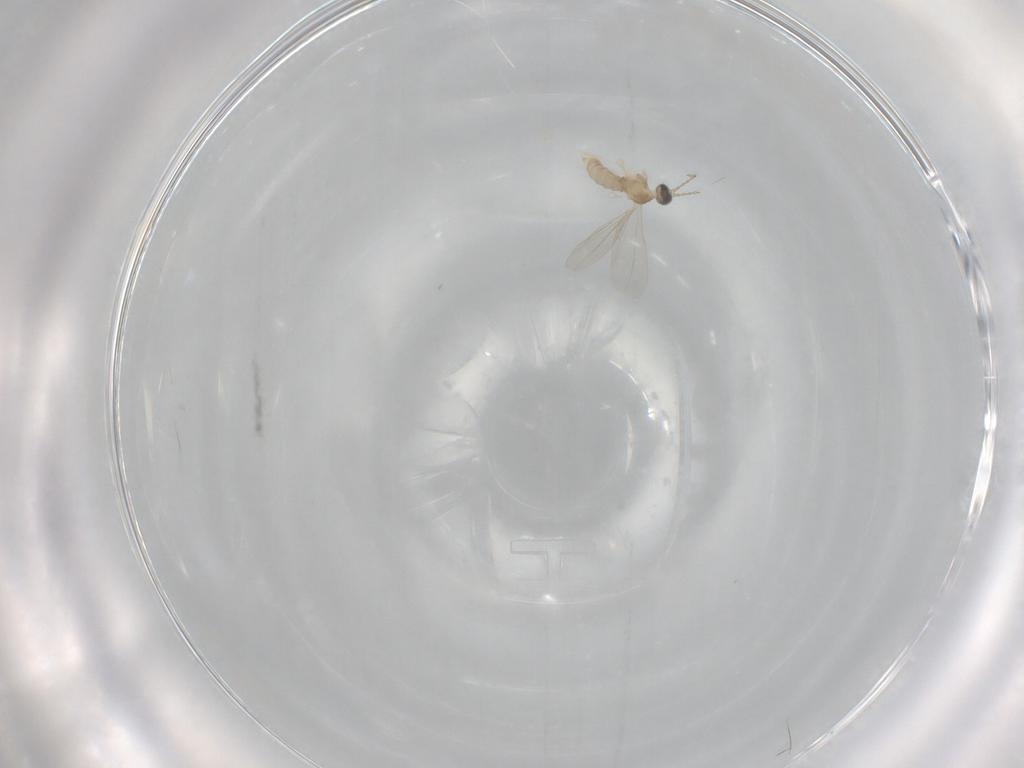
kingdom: Animalia
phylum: Arthropoda
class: Insecta
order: Diptera
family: Cecidomyiidae
